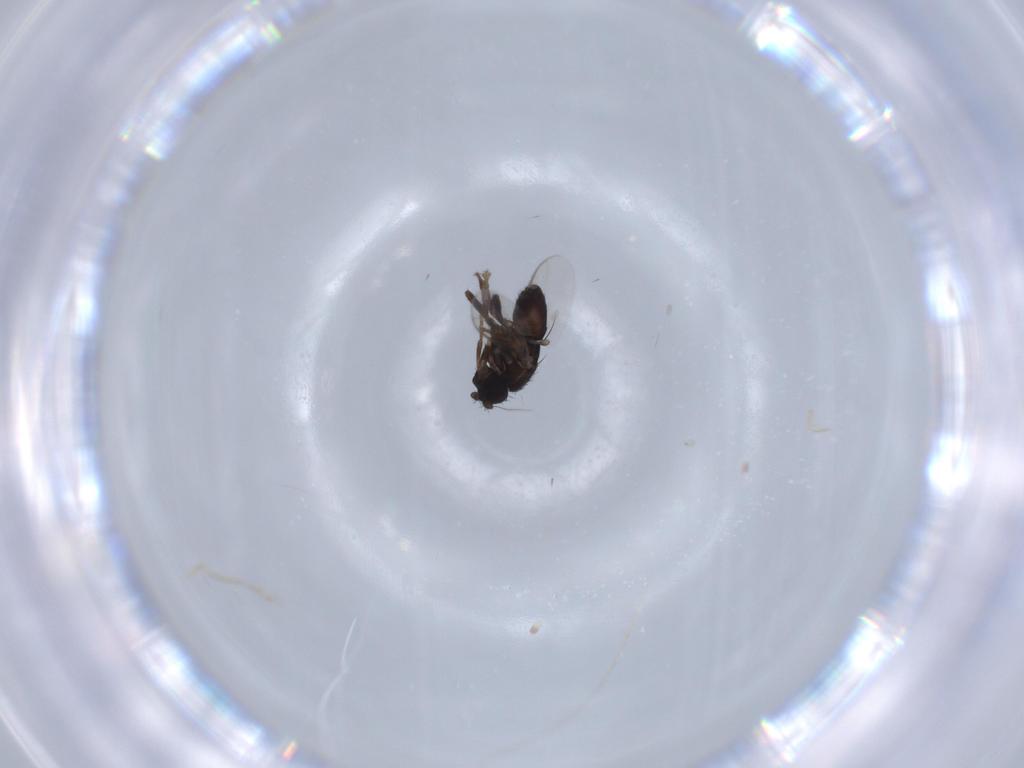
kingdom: Animalia
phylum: Arthropoda
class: Insecta
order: Diptera
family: Sphaeroceridae
